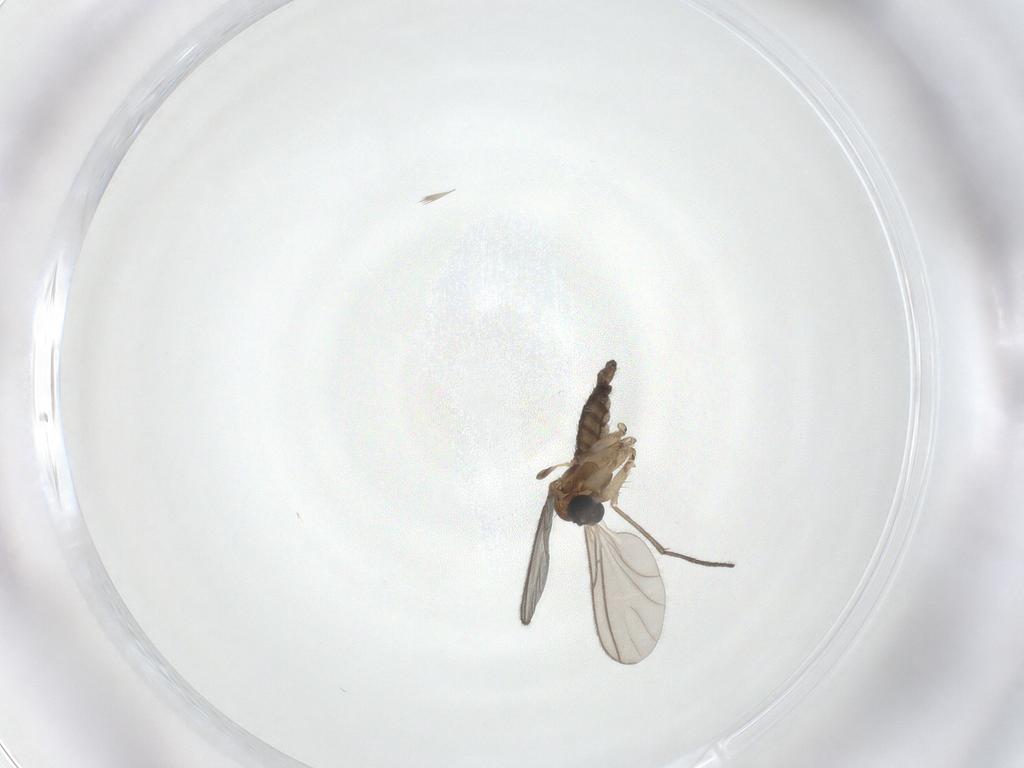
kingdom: Animalia
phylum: Arthropoda
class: Insecta
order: Diptera
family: Sciaridae
